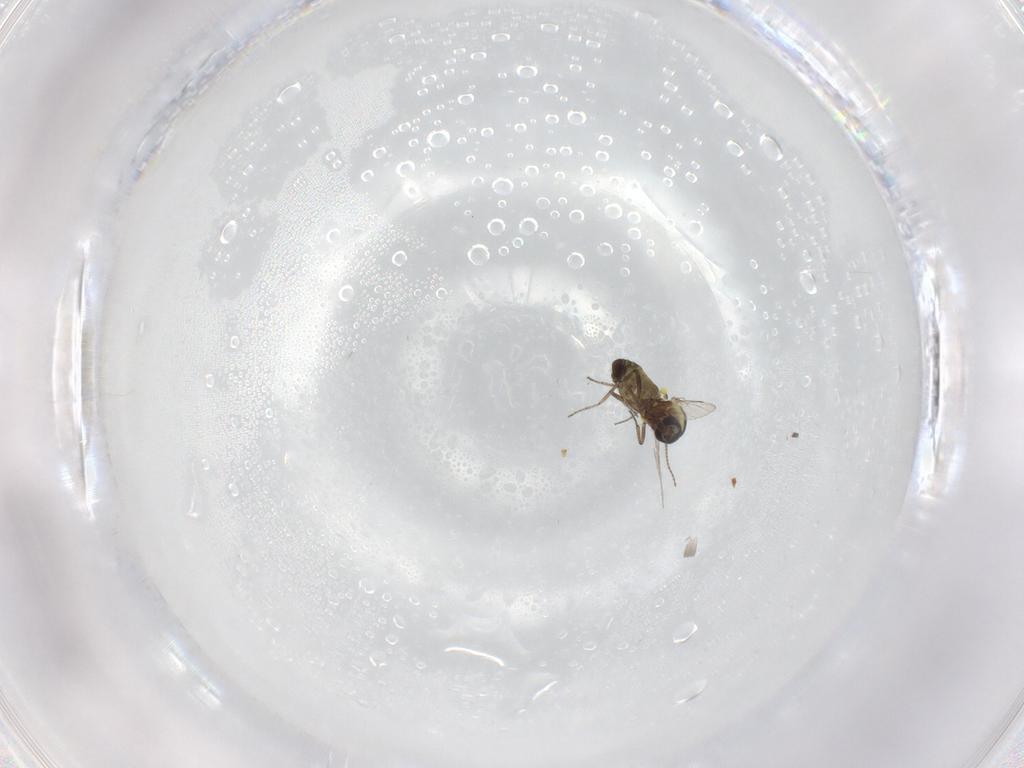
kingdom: Animalia
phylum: Arthropoda
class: Insecta
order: Diptera
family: Ceratopogonidae
